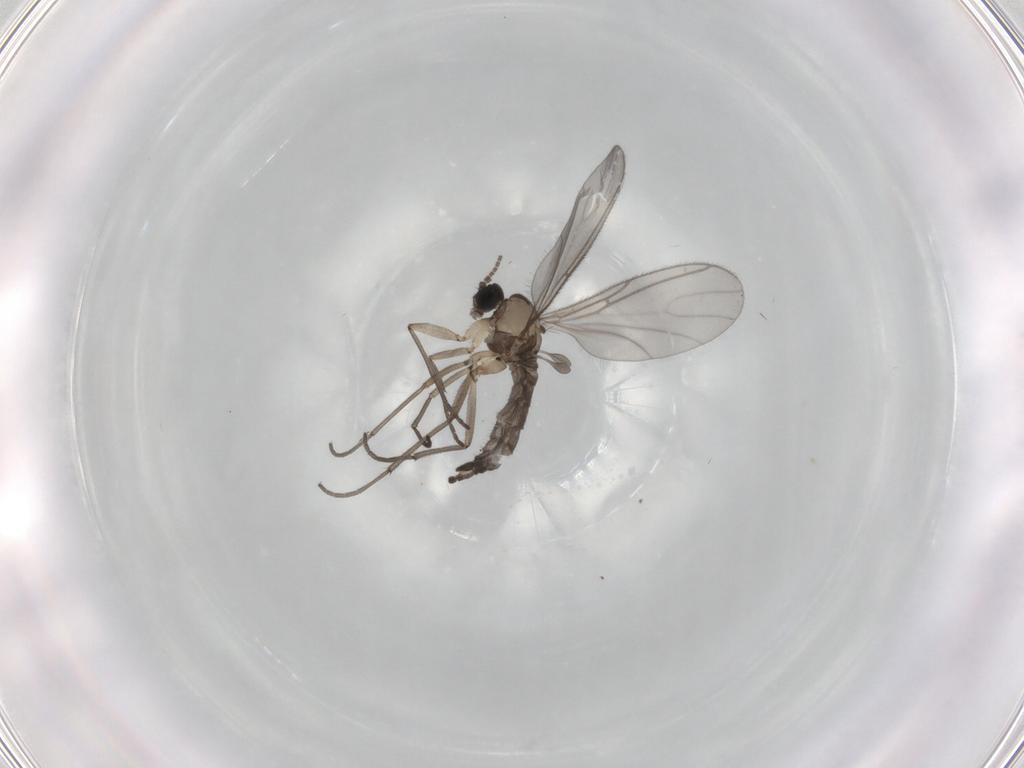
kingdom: Animalia
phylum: Arthropoda
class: Insecta
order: Diptera
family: Sciaridae
